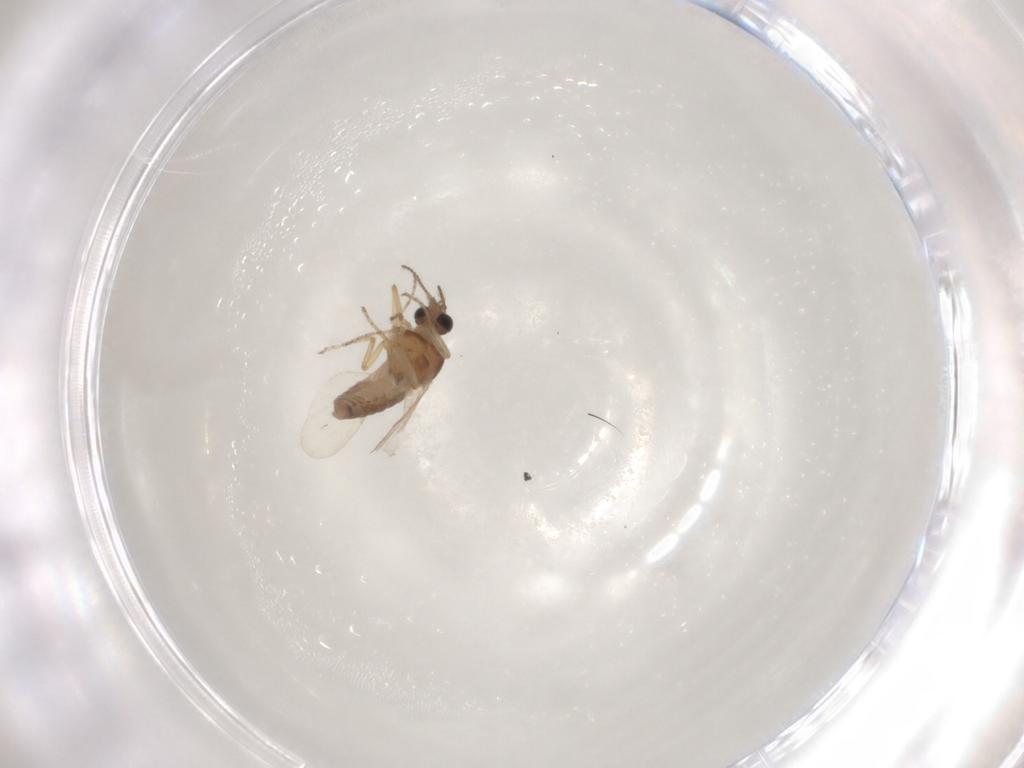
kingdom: Animalia
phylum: Arthropoda
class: Insecta
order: Diptera
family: Ceratopogonidae
